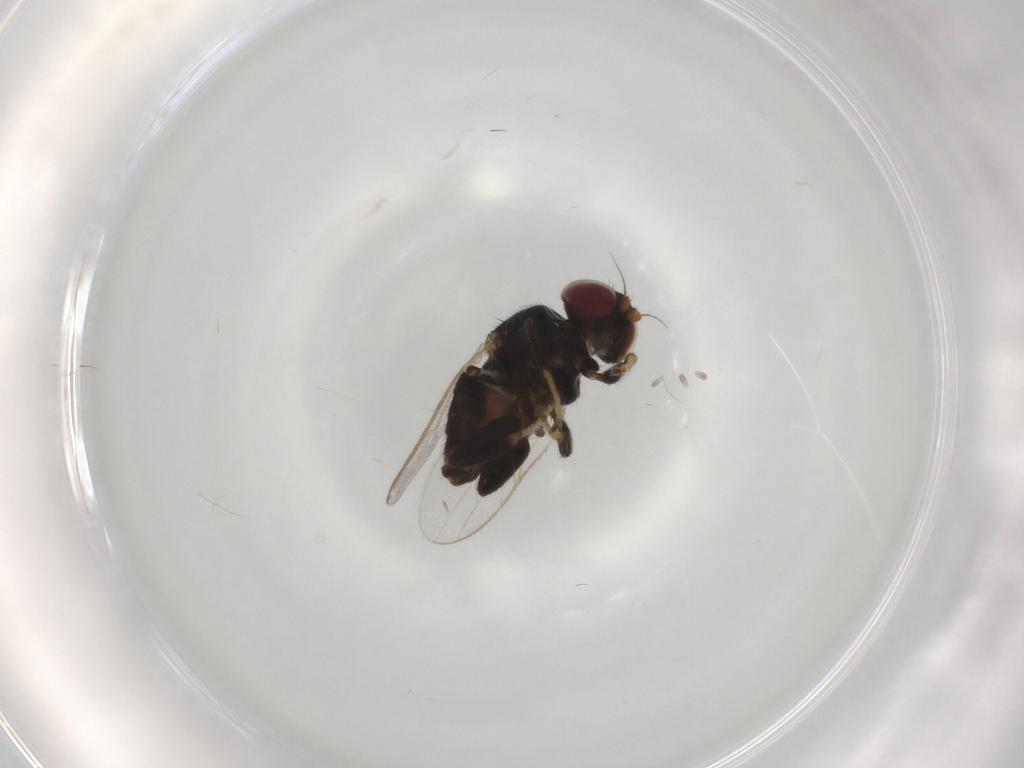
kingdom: Animalia
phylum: Arthropoda
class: Insecta
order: Diptera
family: Chloropidae
